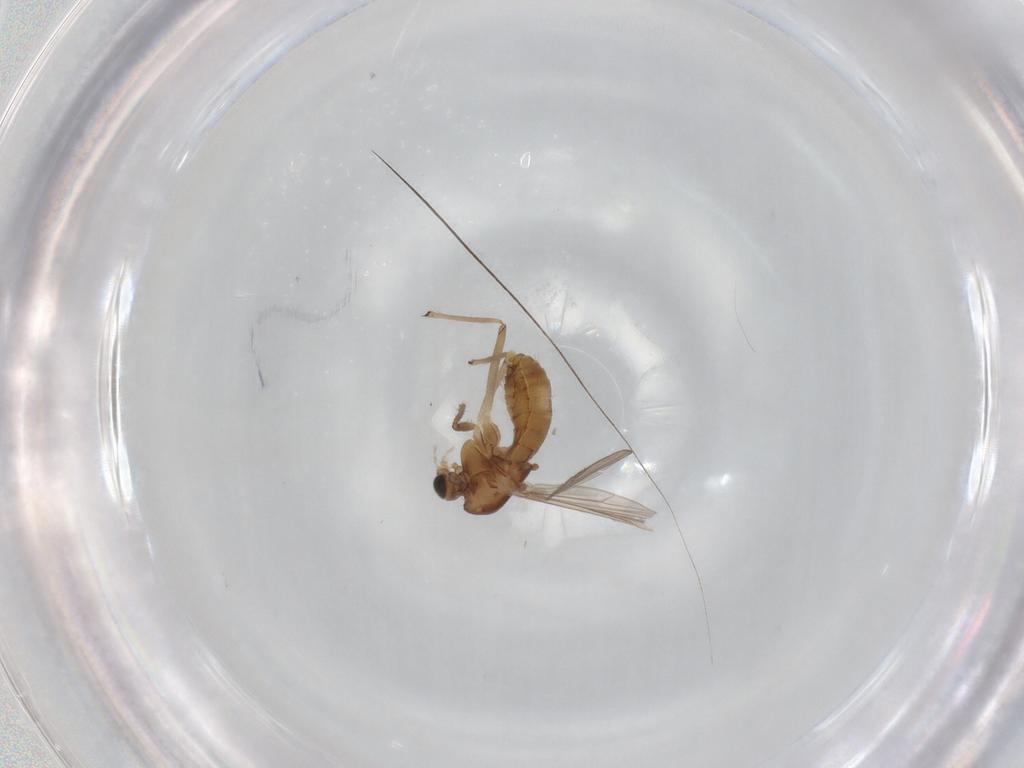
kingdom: Animalia
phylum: Arthropoda
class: Insecta
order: Diptera
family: Chironomidae
